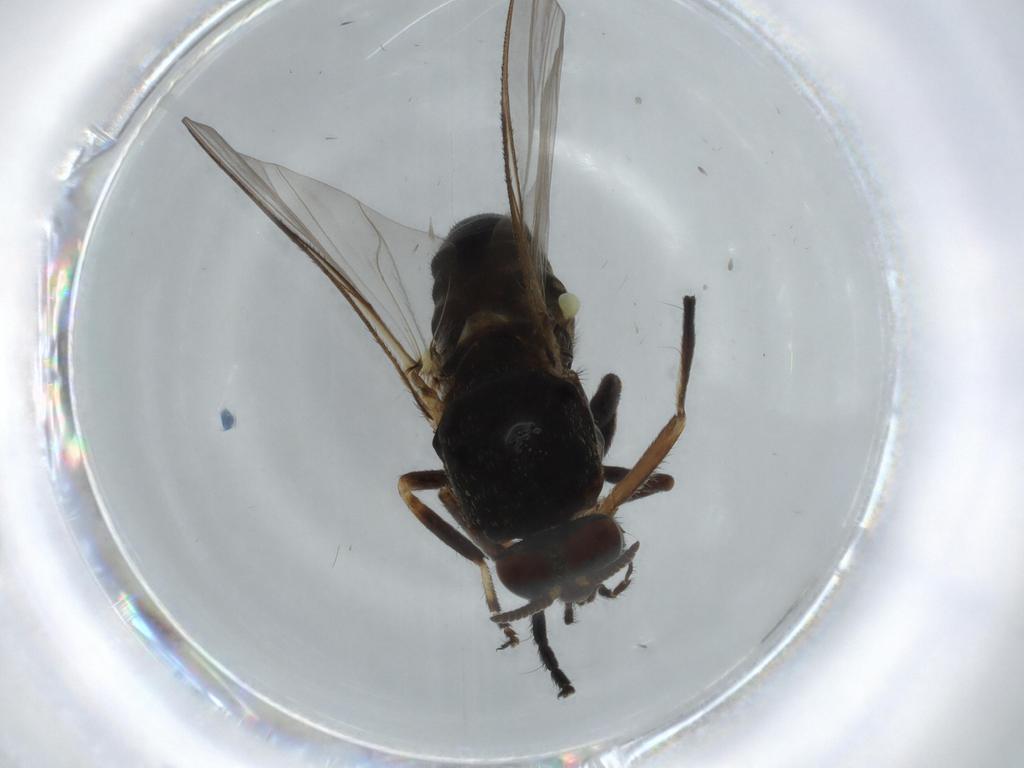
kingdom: Animalia
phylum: Arthropoda
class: Insecta
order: Diptera
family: Phoridae
